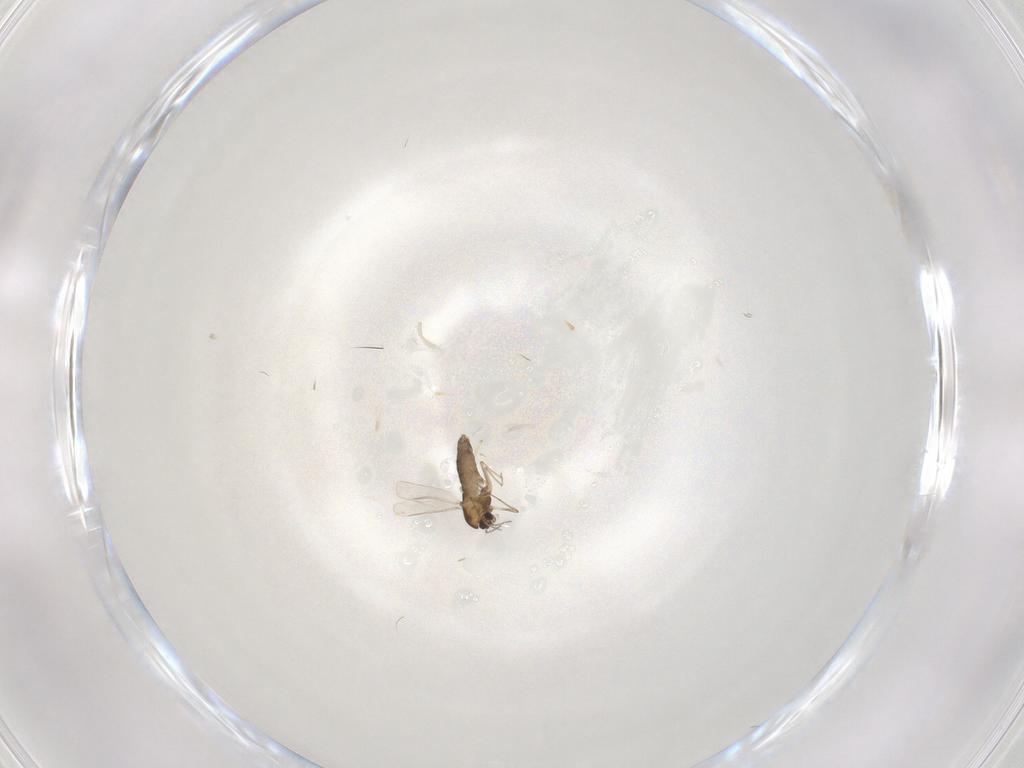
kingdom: Animalia
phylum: Arthropoda
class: Insecta
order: Diptera
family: Chironomidae
